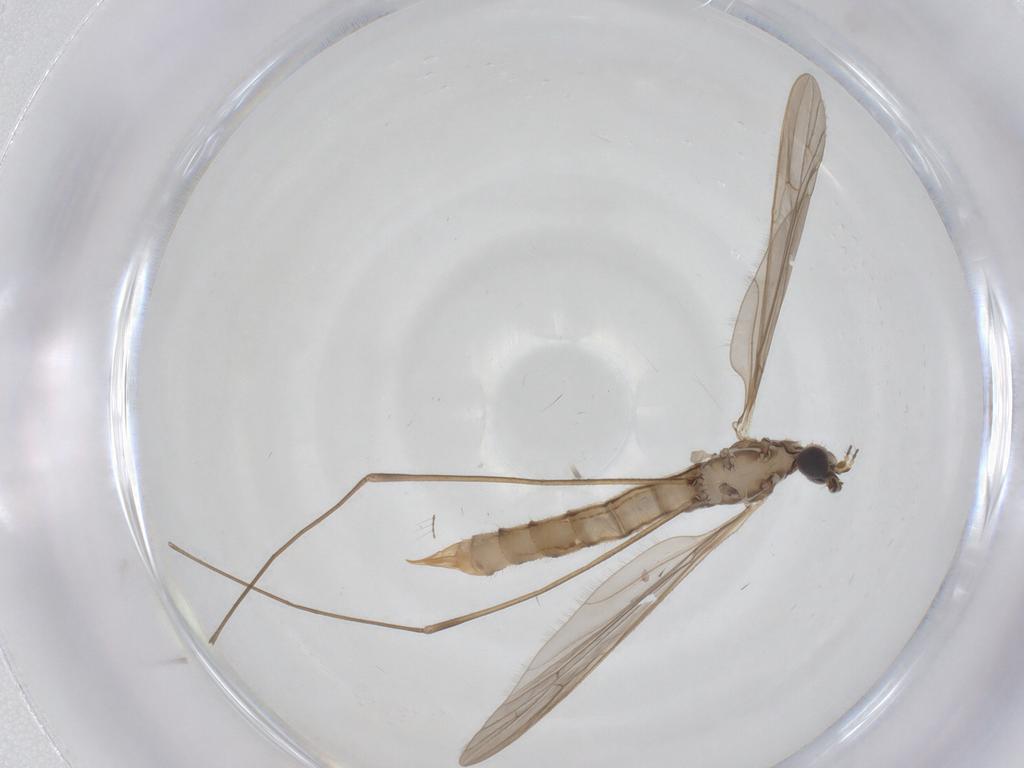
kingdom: Animalia
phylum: Arthropoda
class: Insecta
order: Diptera
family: Limoniidae
